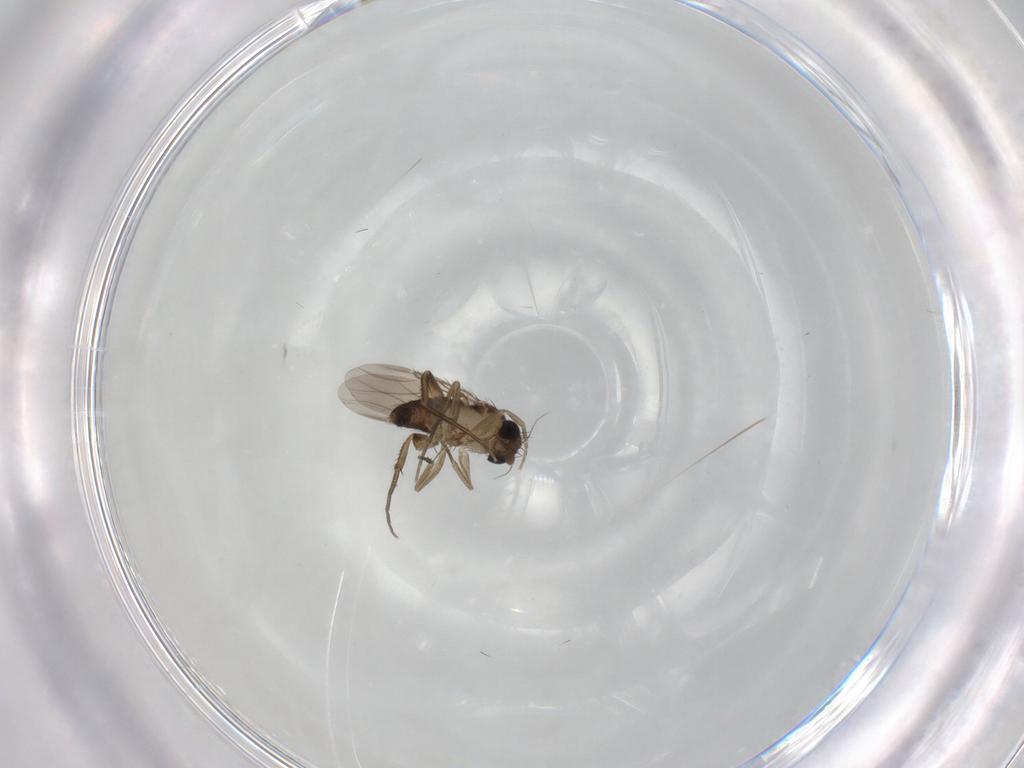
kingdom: Animalia
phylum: Arthropoda
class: Insecta
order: Diptera
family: Phoridae
